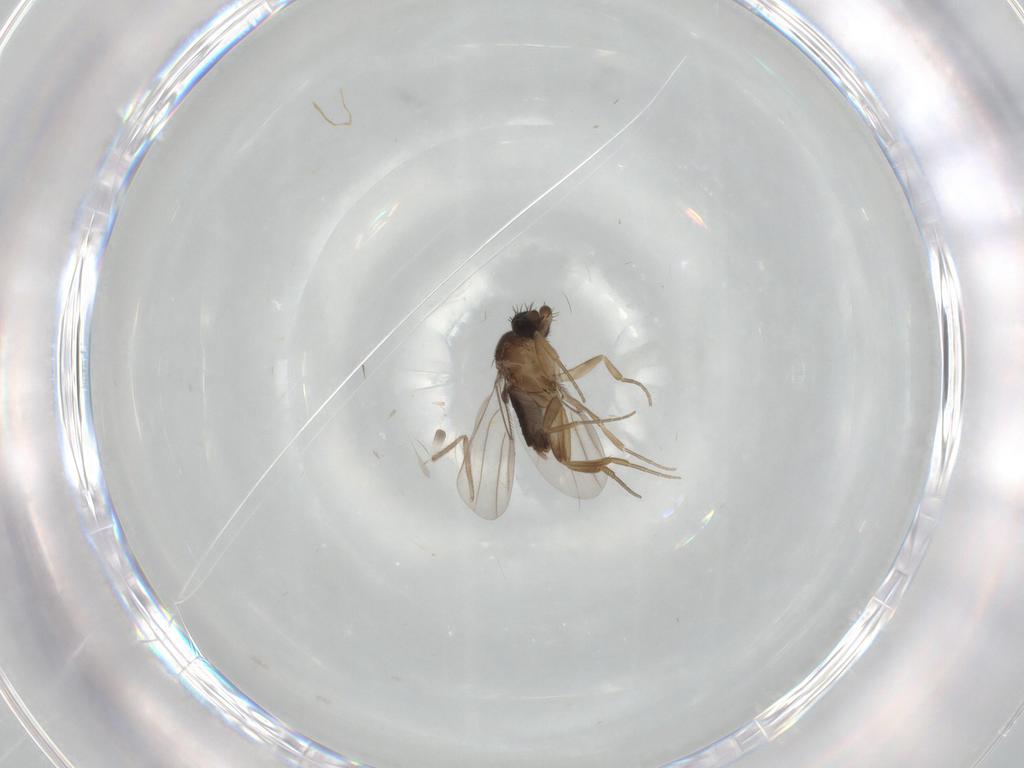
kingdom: Animalia
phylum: Arthropoda
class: Insecta
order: Diptera
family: Phoridae
